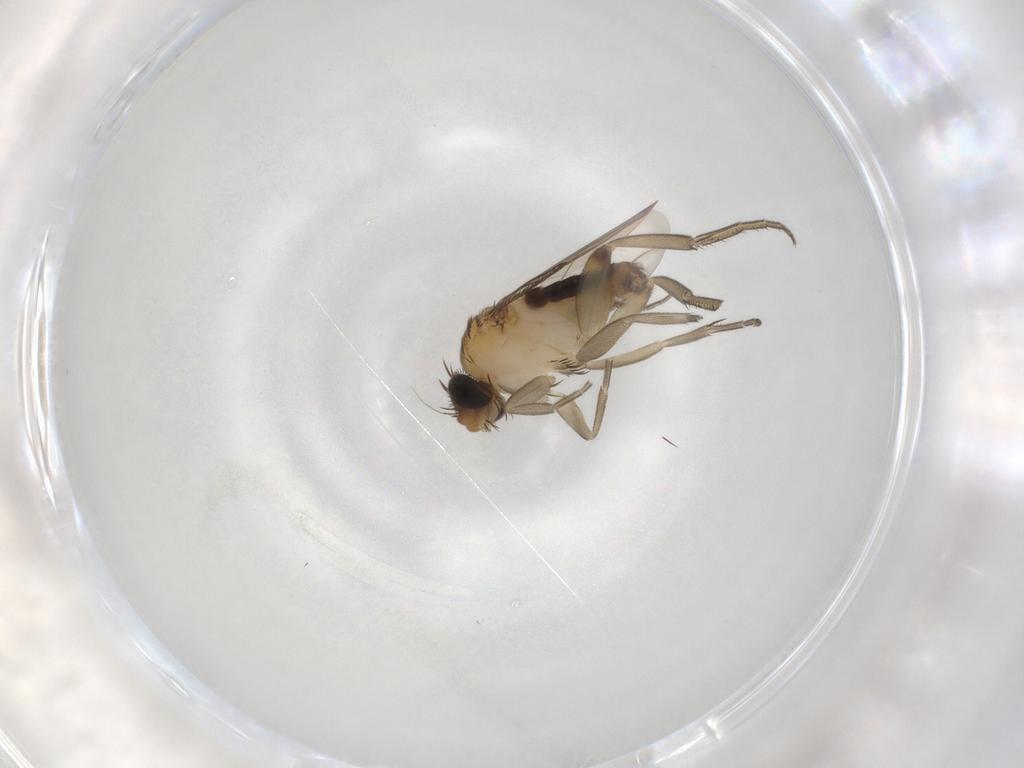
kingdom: Animalia
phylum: Arthropoda
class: Insecta
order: Diptera
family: Phoridae
